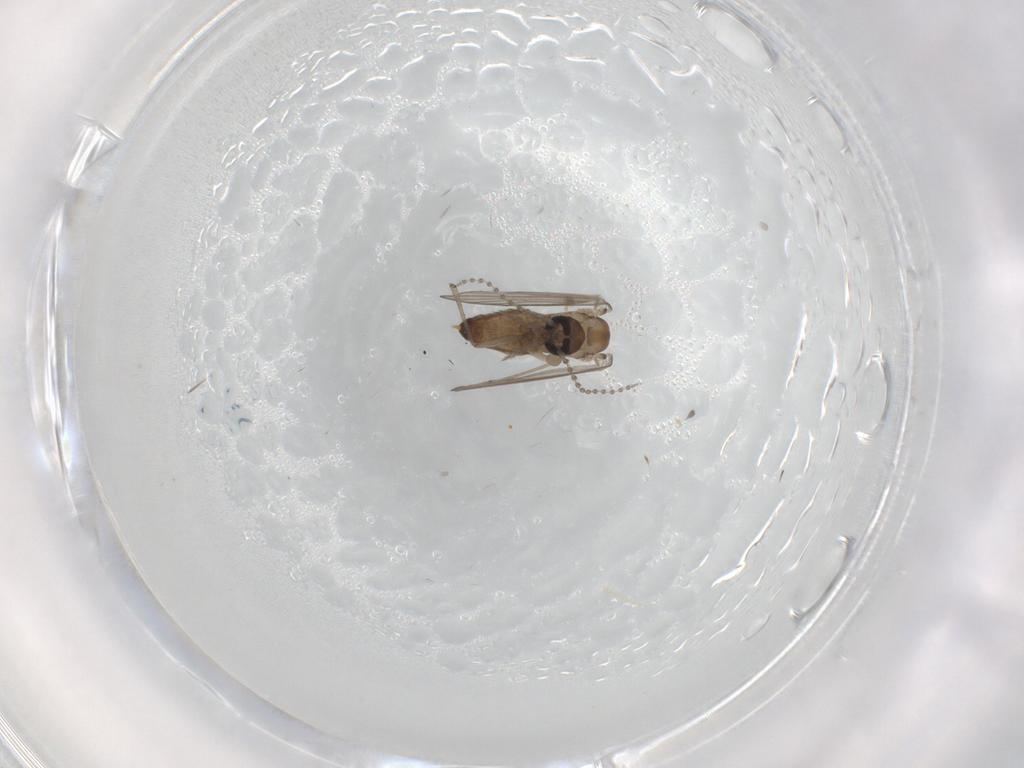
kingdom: Animalia
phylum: Arthropoda
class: Insecta
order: Diptera
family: Psychodidae
